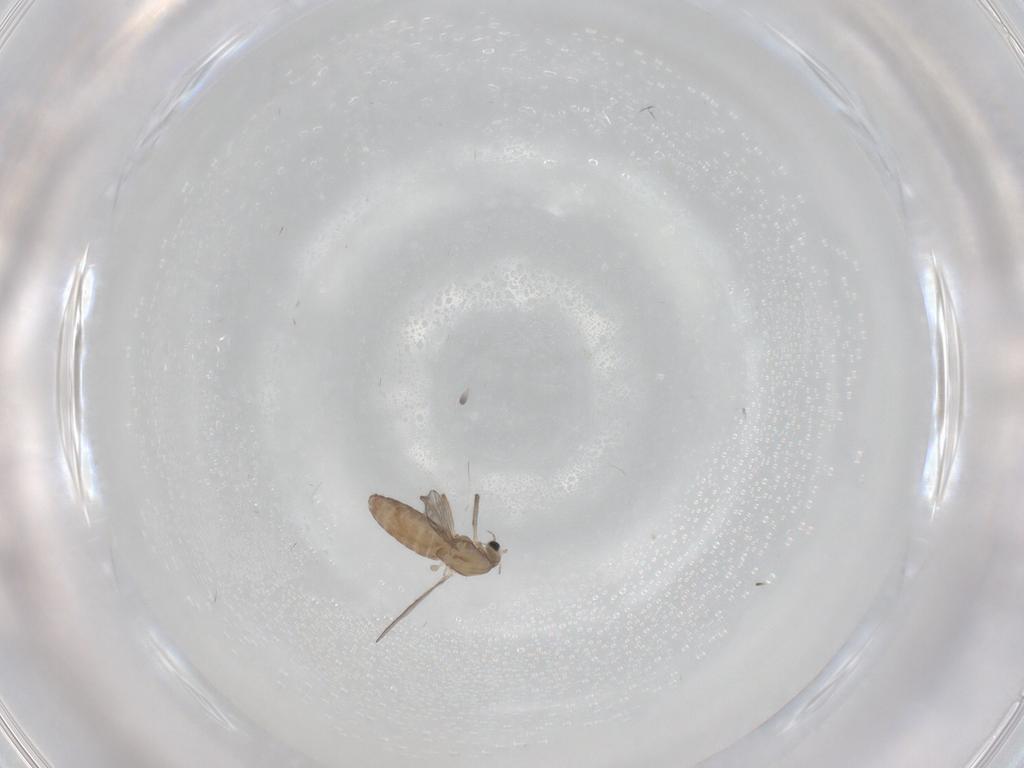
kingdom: Animalia
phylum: Arthropoda
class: Insecta
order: Diptera
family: Chironomidae
